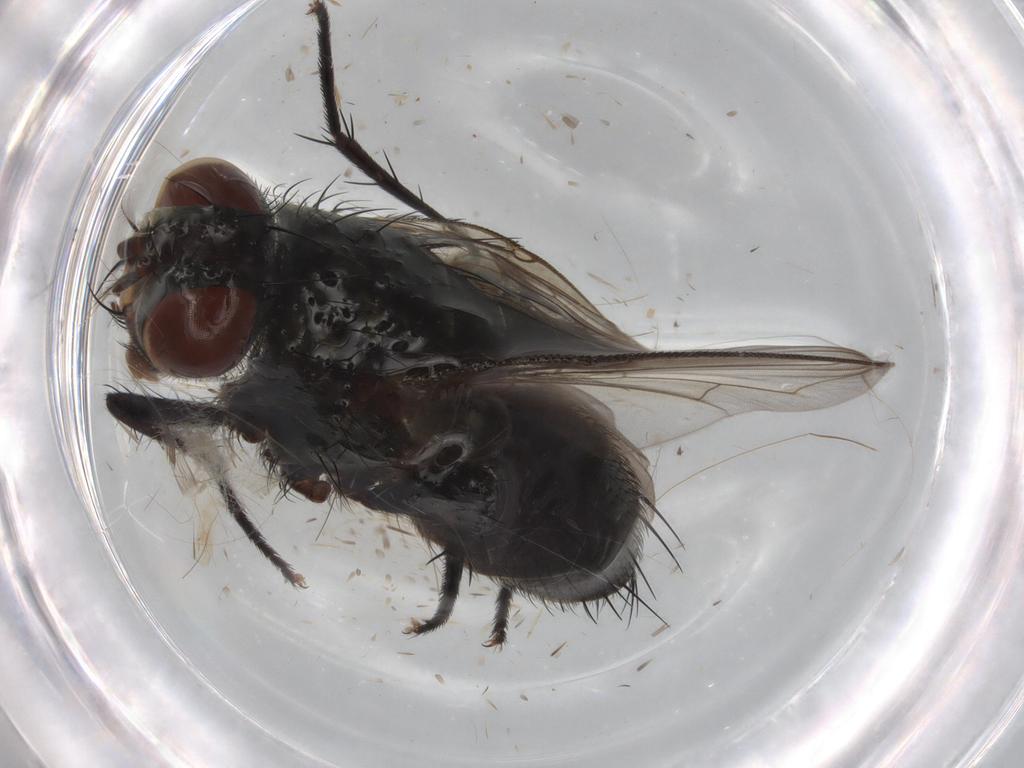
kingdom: Animalia
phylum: Arthropoda
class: Insecta
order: Diptera
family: Sarcophagidae
